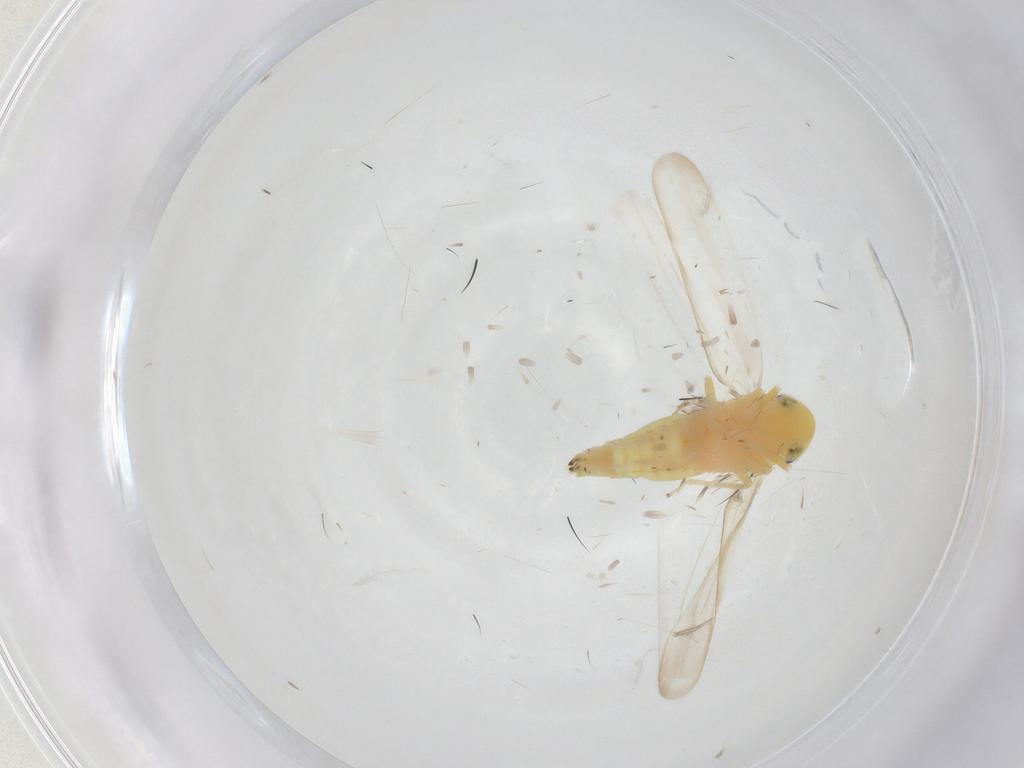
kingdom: Animalia
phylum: Arthropoda
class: Insecta
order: Hemiptera
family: Cicadellidae
